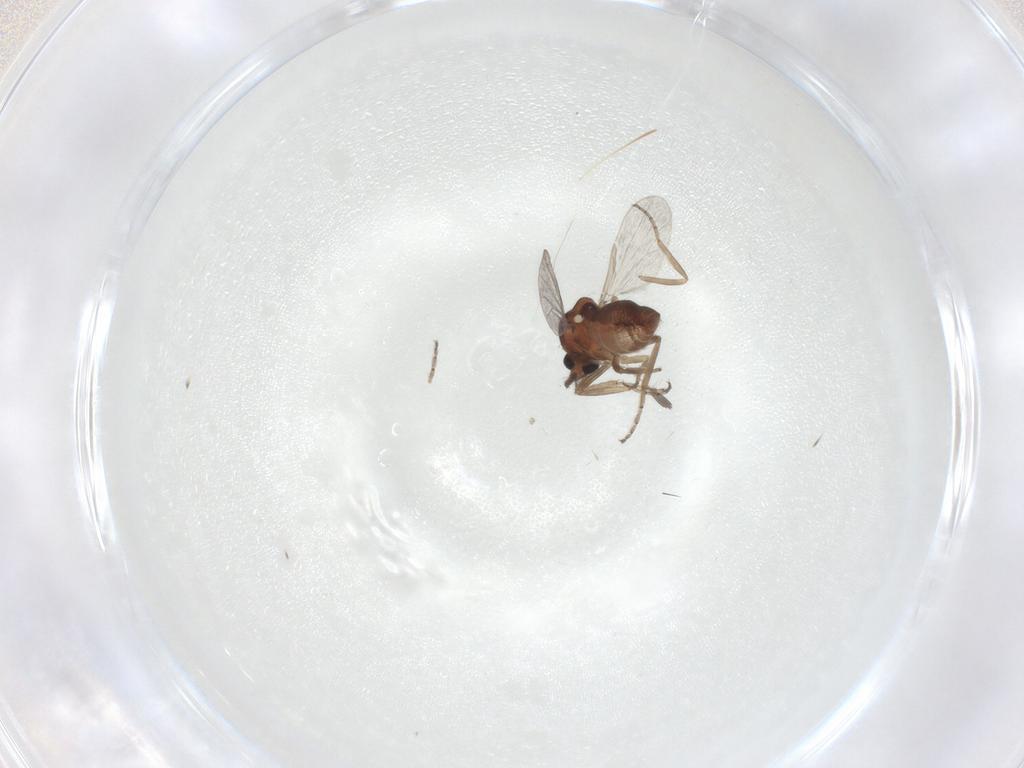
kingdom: Animalia
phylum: Arthropoda
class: Insecta
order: Diptera
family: Ceratopogonidae
